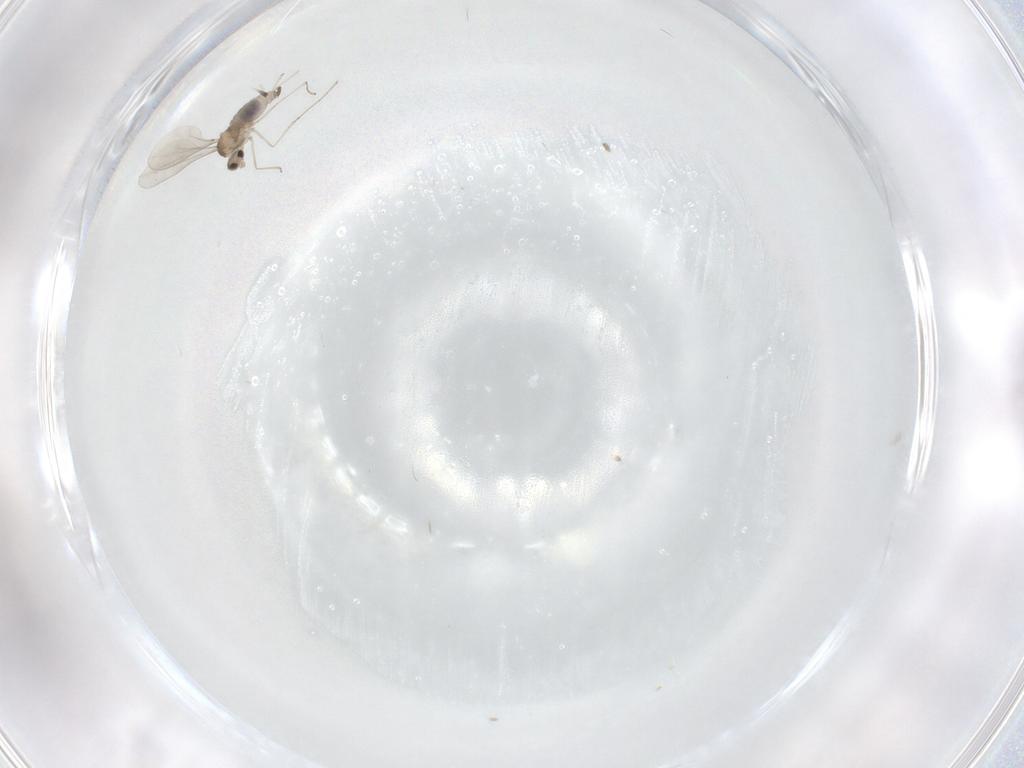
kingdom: Animalia
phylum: Arthropoda
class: Insecta
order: Diptera
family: Cecidomyiidae
